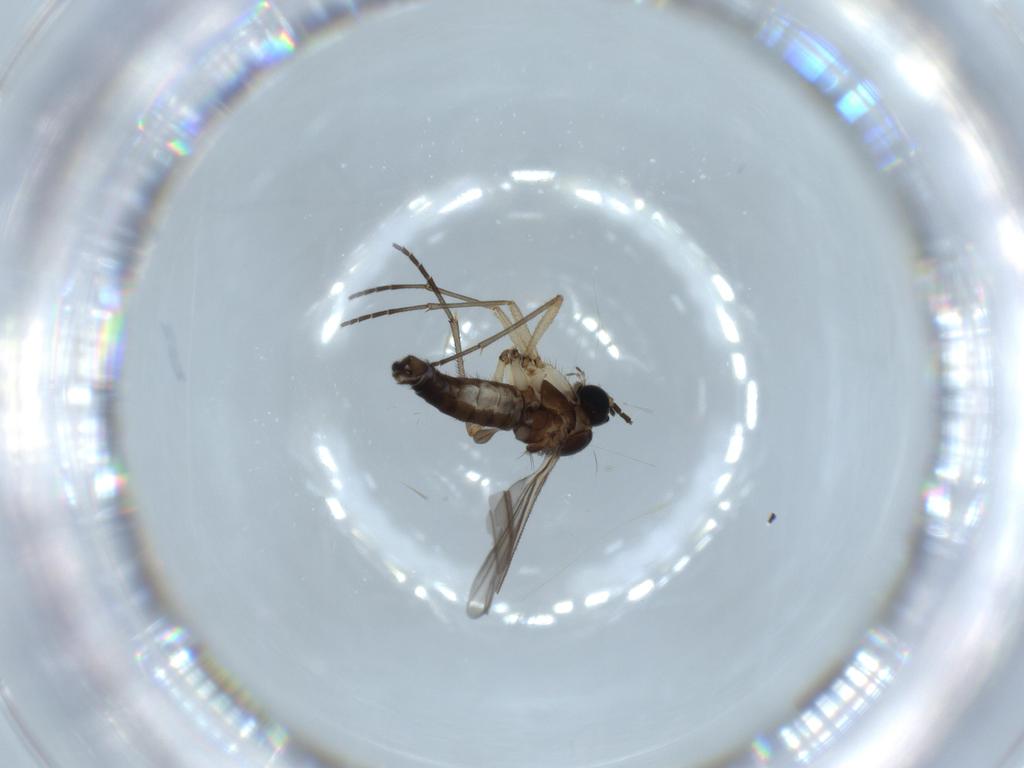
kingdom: Animalia
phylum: Arthropoda
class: Insecta
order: Diptera
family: Sciaridae
